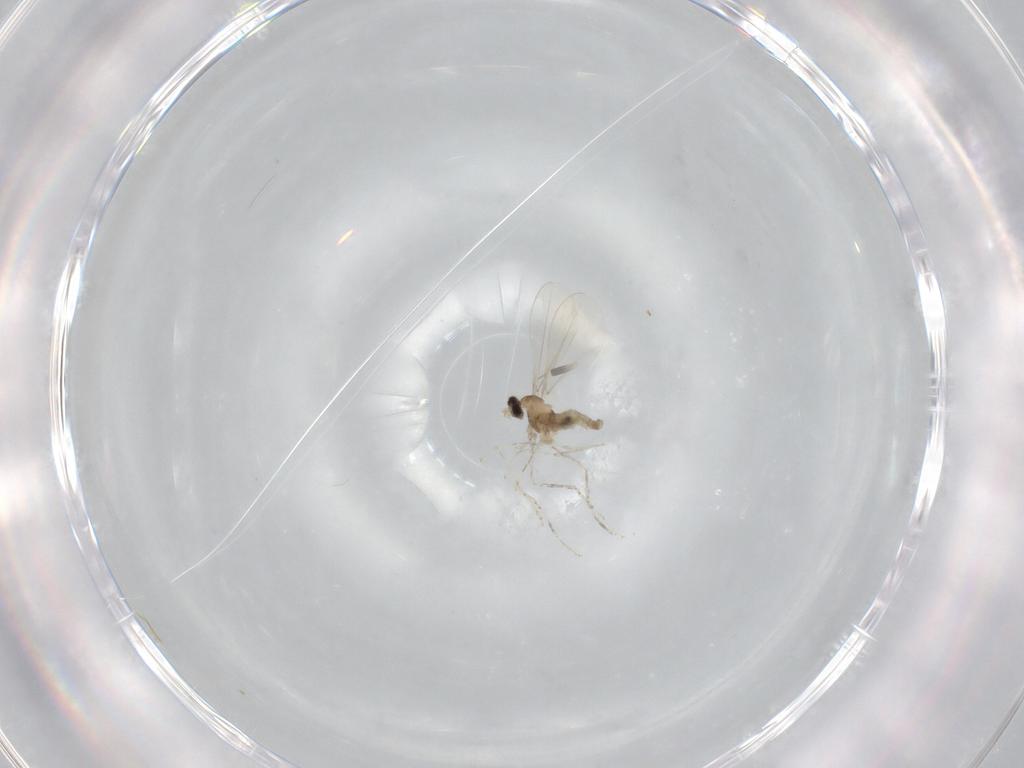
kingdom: Animalia
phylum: Arthropoda
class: Insecta
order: Diptera
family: Cecidomyiidae
